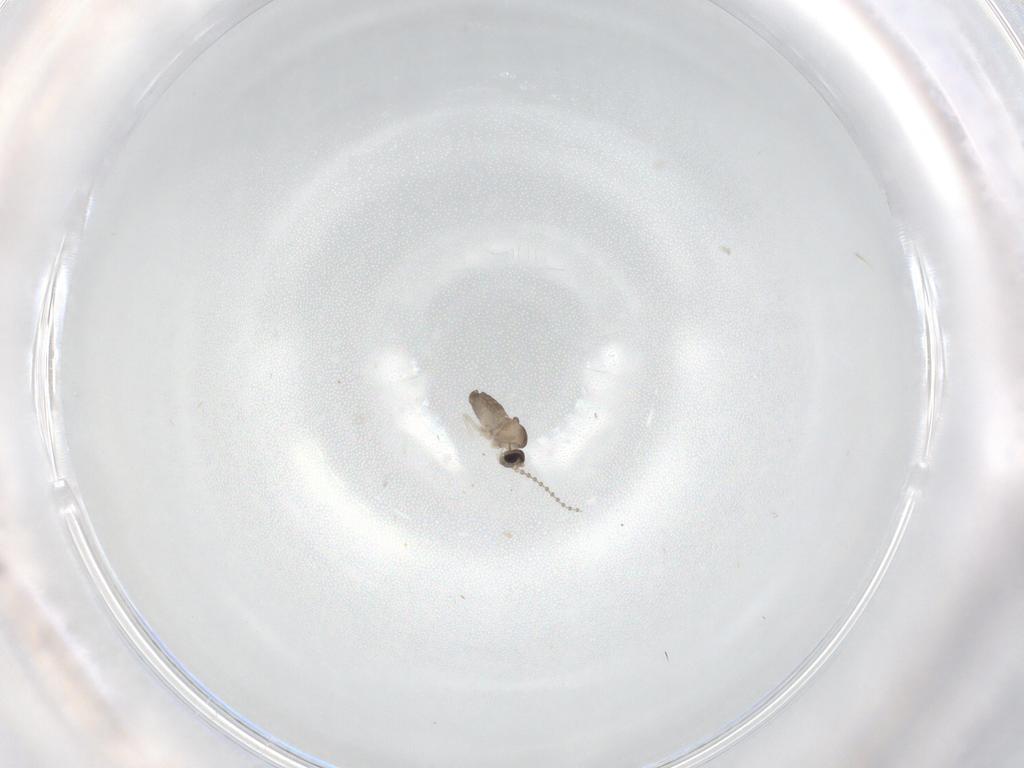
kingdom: Animalia
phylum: Arthropoda
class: Insecta
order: Diptera
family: Cecidomyiidae
